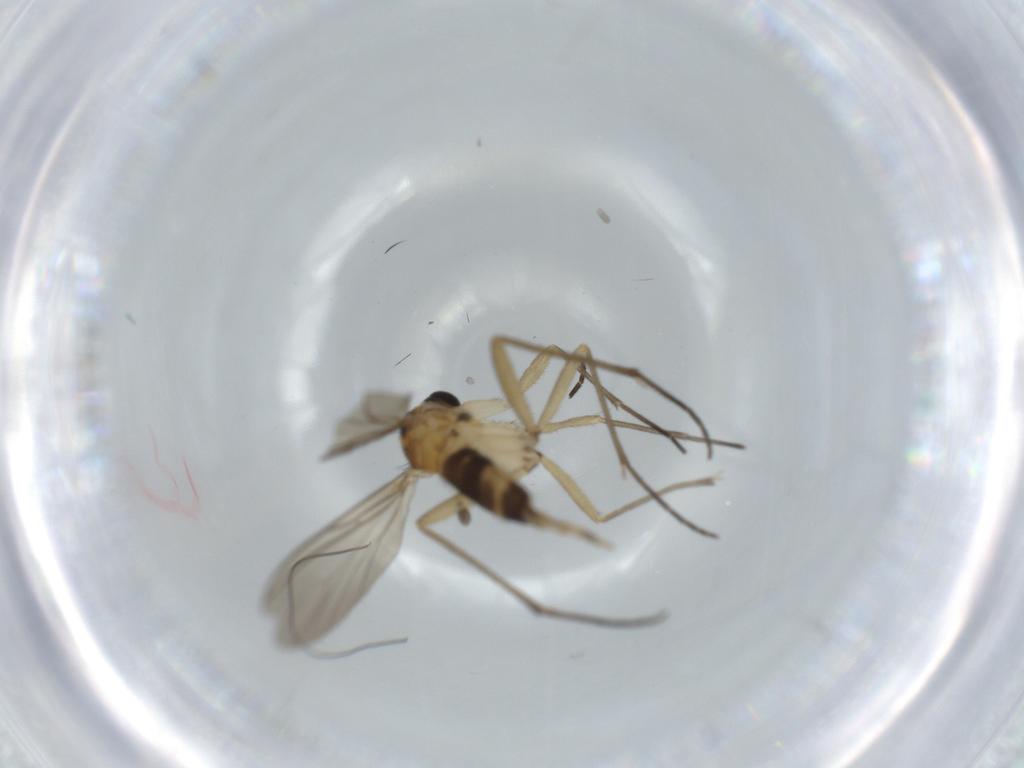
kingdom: Animalia
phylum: Arthropoda
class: Insecta
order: Diptera
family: Sciaridae
